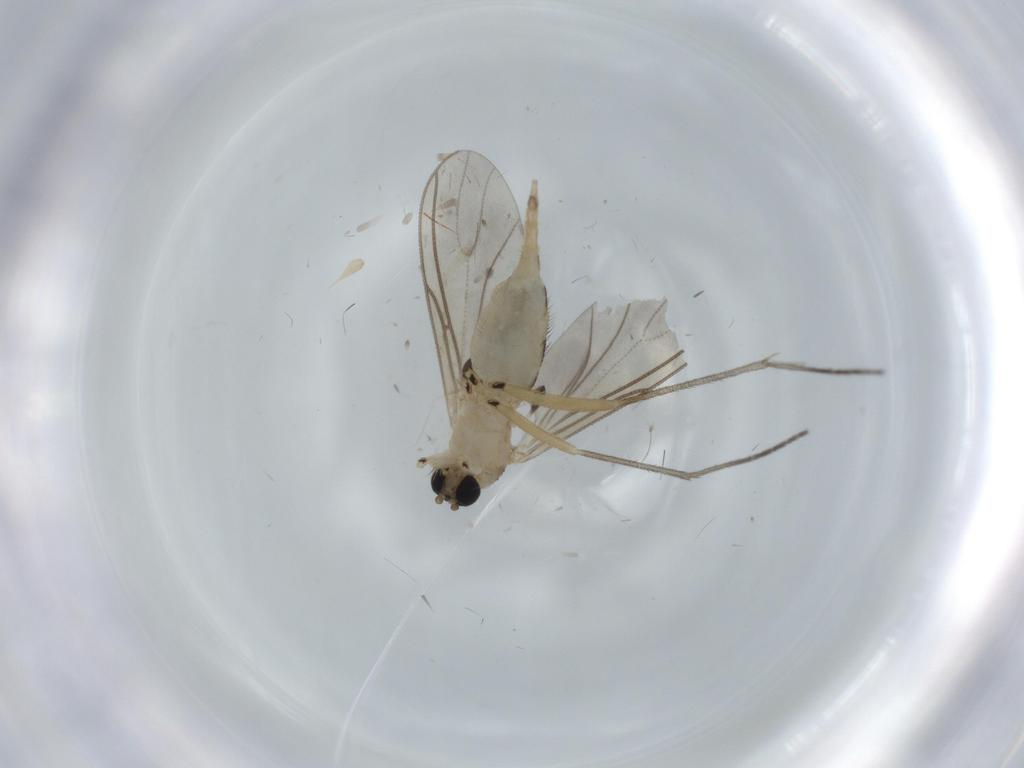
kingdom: Animalia
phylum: Arthropoda
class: Insecta
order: Diptera
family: Sciaridae
